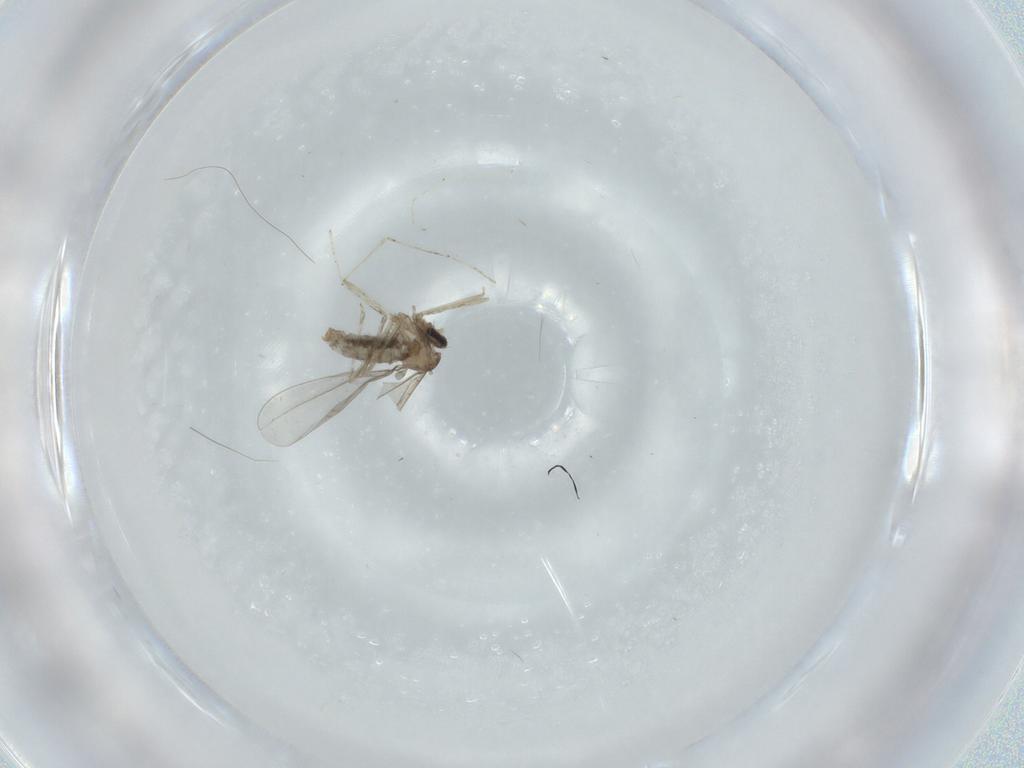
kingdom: Animalia
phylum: Arthropoda
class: Insecta
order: Diptera
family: Cecidomyiidae
